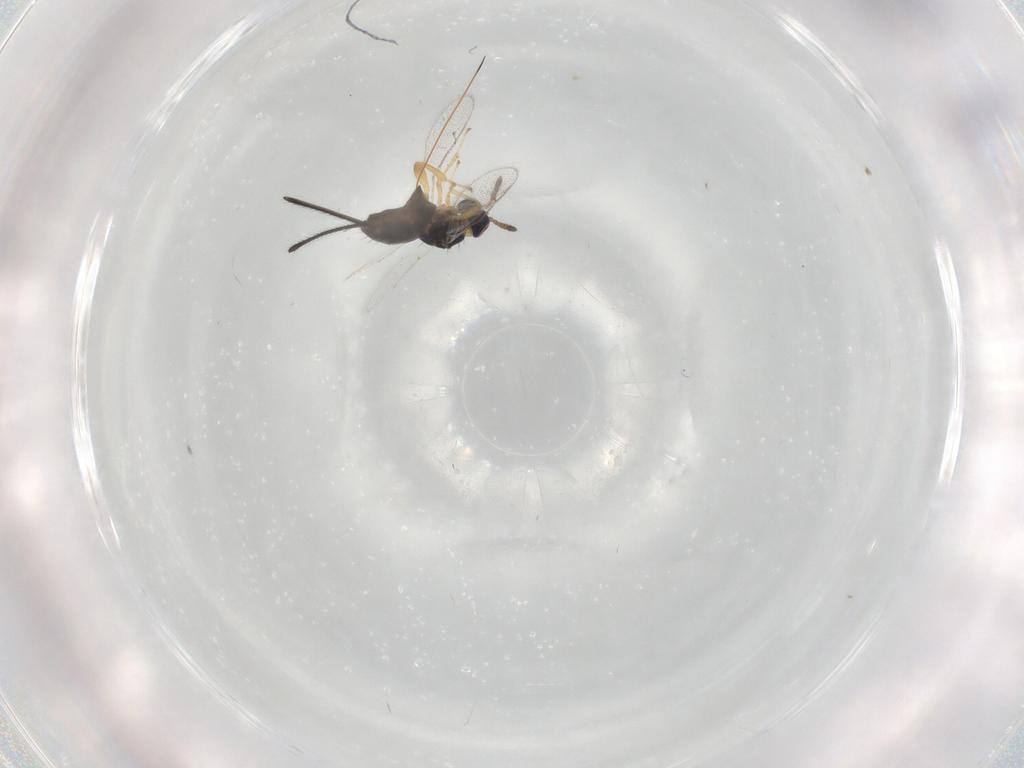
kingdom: Animalia
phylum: Arthropoda
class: Insecta
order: Hymenoptera
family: Torymidae
